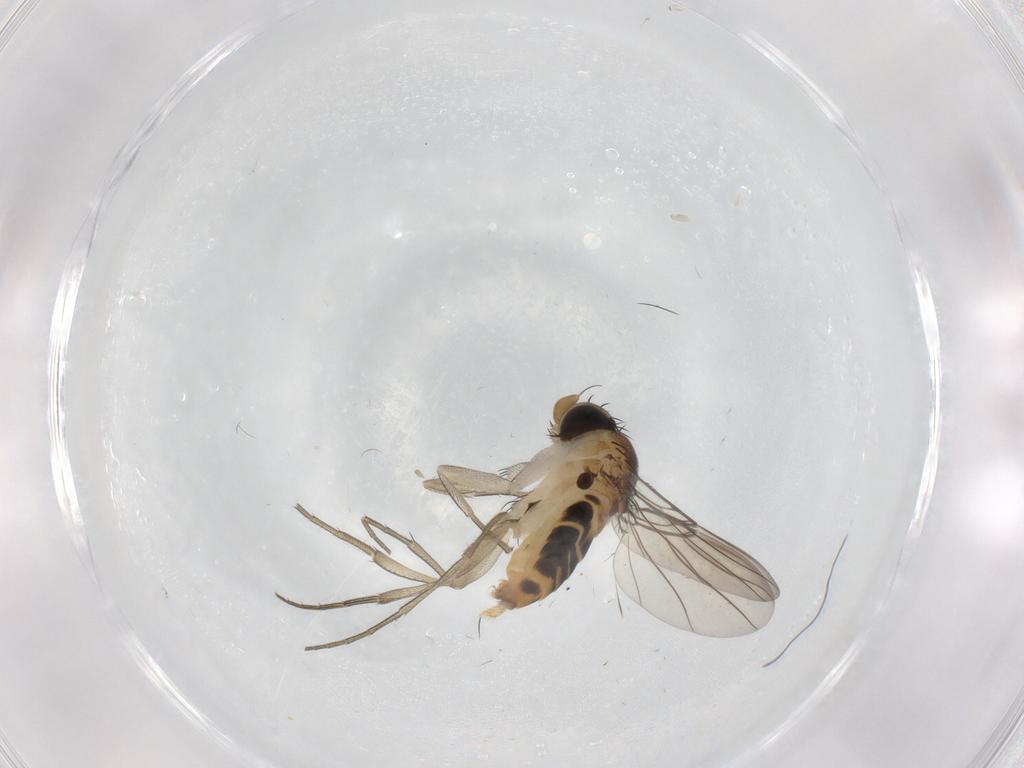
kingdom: Animalia
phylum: Arthropoda
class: Insecta
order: Diptera
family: Phoridae
